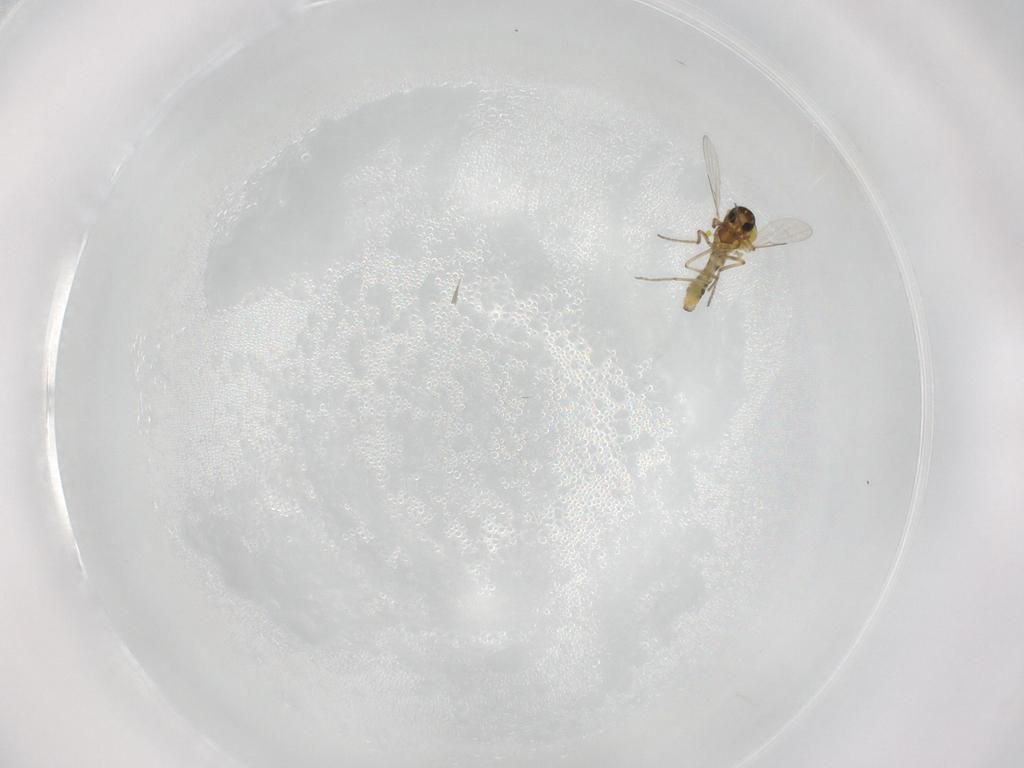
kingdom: Animalia
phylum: Arthropoda
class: Insecta
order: Diptera
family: Ceratopogonidae
